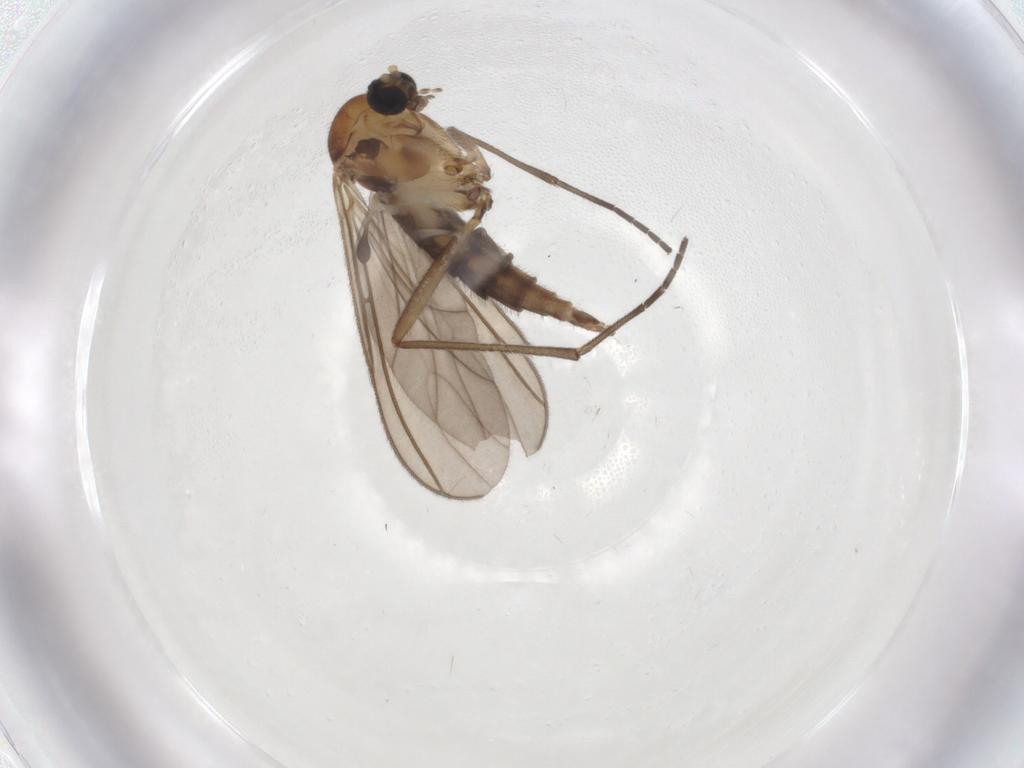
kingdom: Animalia
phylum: Arthropoda
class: Insecta
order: Diptera
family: Sciaridae
